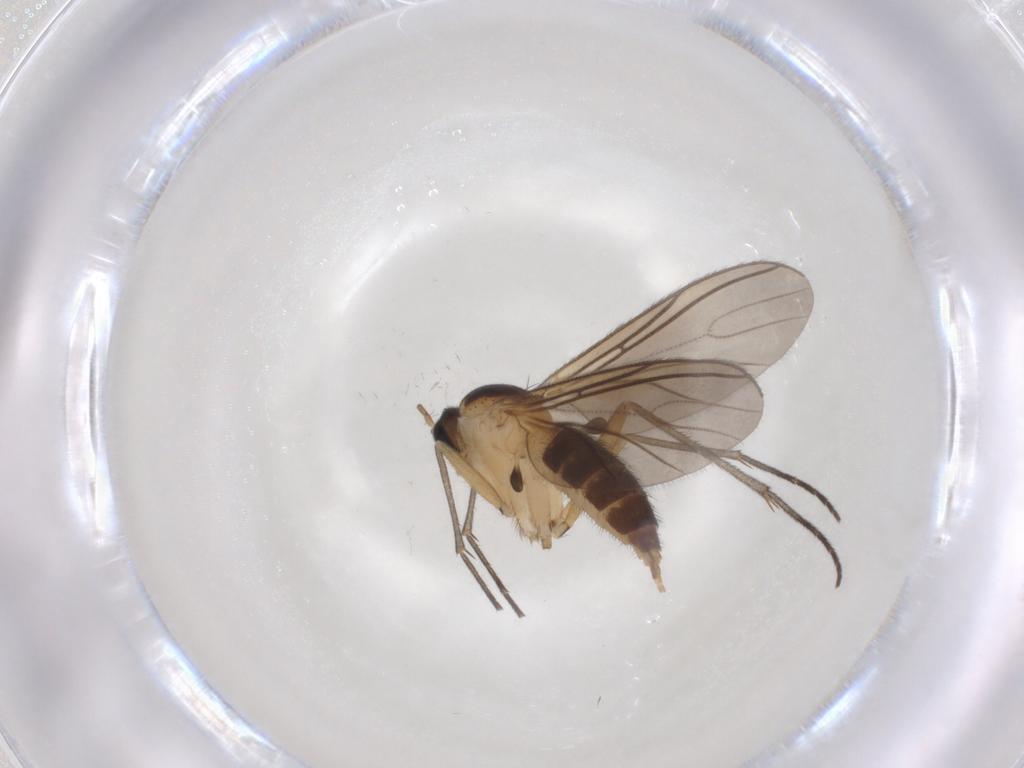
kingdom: Animalia
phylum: Arthropoda
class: Insecta
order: Diptera
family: Sciaridae
